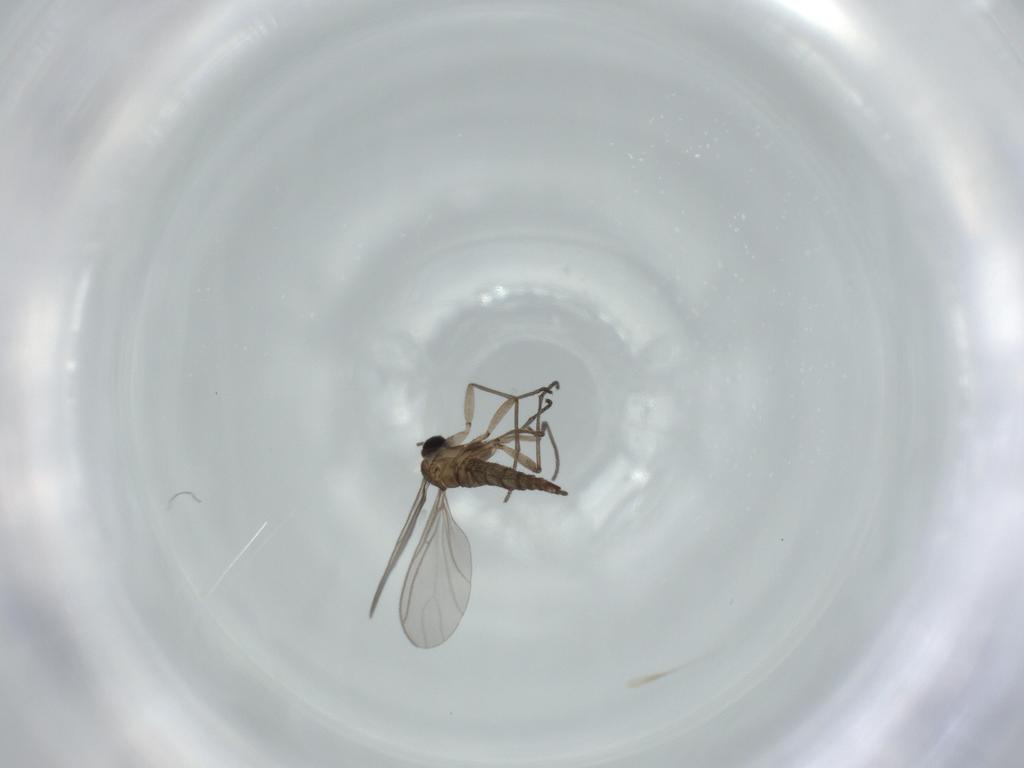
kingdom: Animalia
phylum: Arthropoda
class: Insecta
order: Diptera
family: Sciaridae
